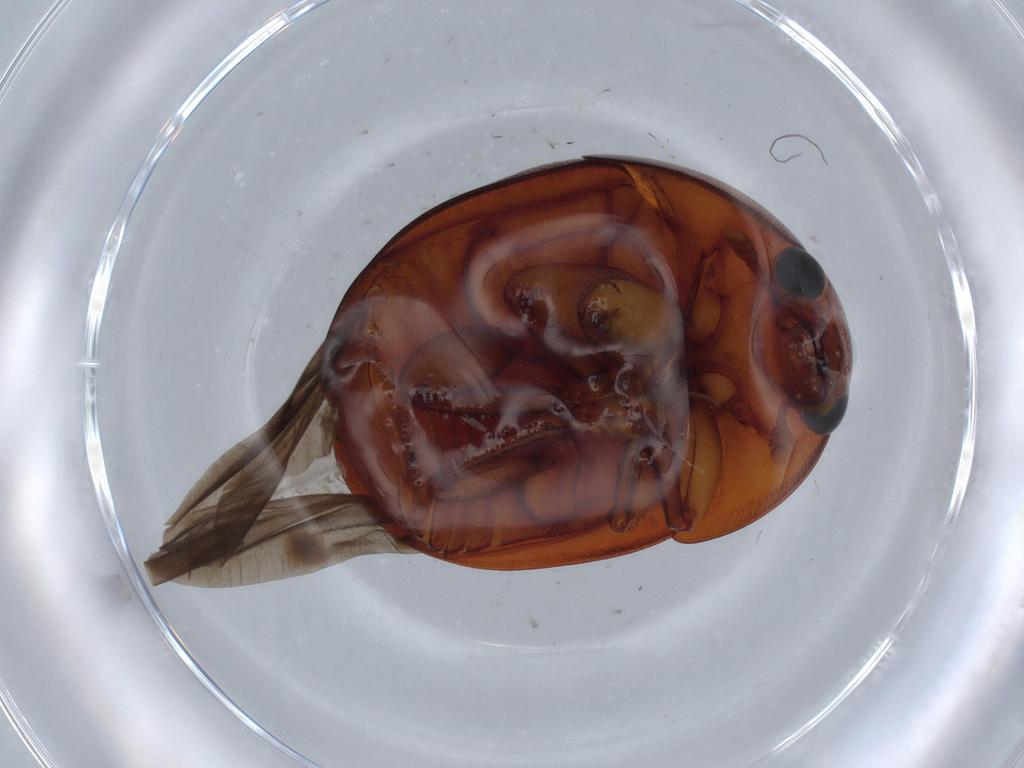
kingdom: Animalia
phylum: Arthropoda
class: Insecta
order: Coleoptera
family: Nitidulidae
